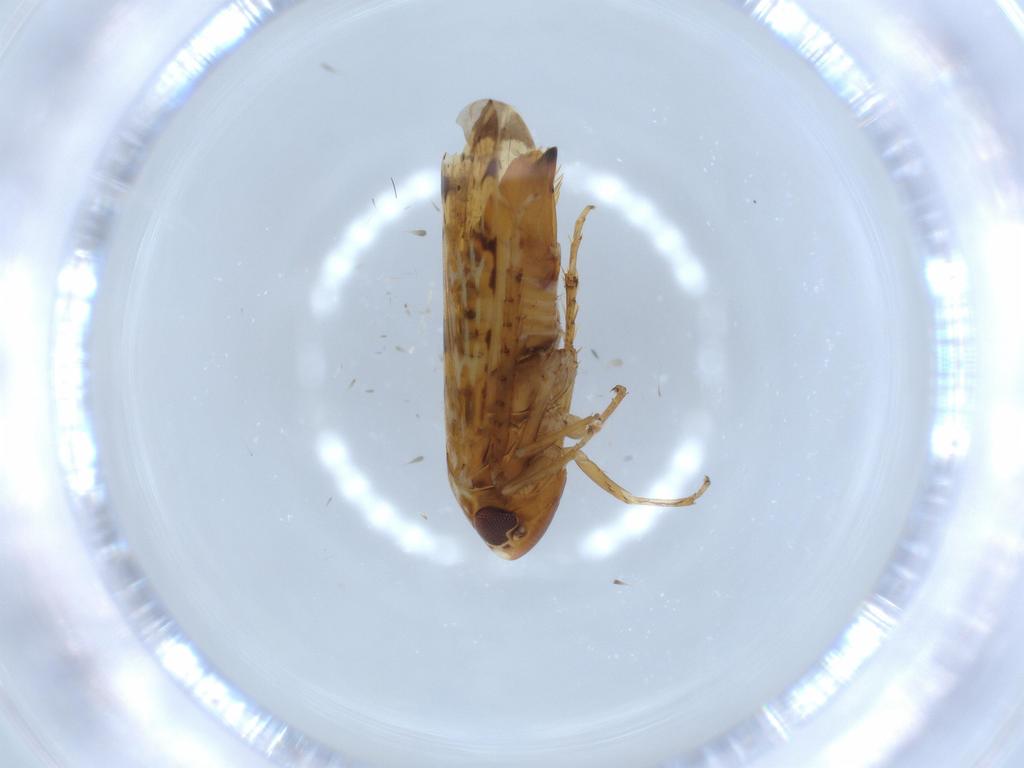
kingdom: Animalia
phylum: Arthropoda
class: Insecta
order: Hemiptera
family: Cicadellidae
